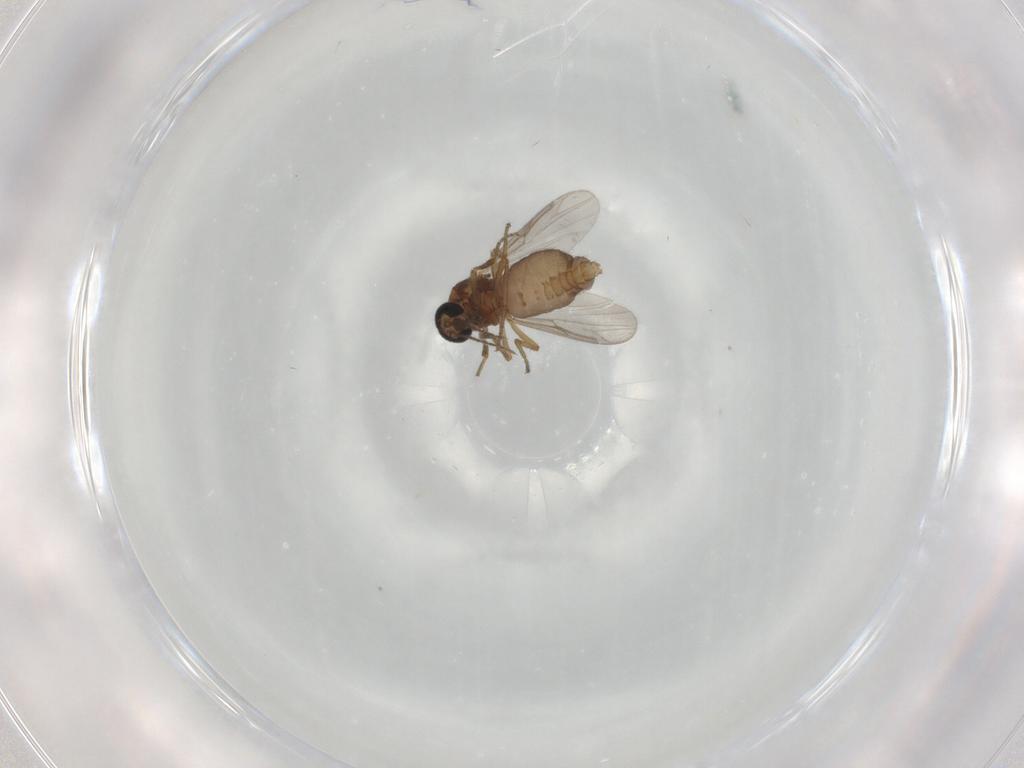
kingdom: Animalia
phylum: Arthropoda
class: Insecta
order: Diptera
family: Ceratopogonidae
